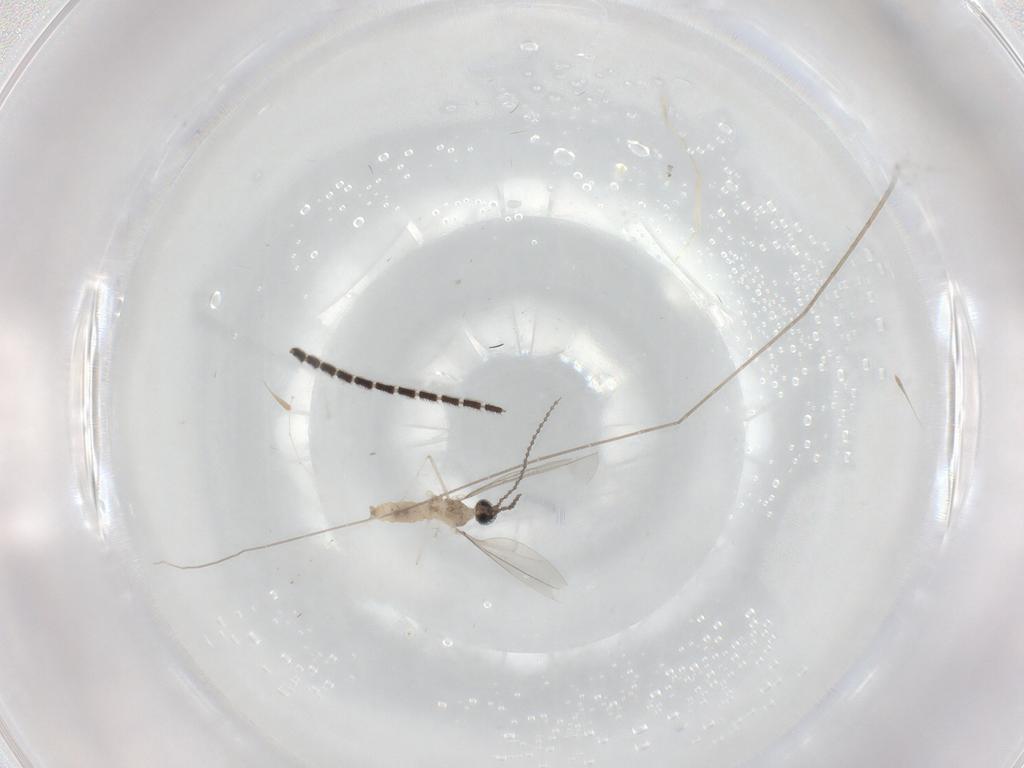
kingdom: Animalia
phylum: Arthropoda
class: Insecta
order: Diptera
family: Sciaridae
